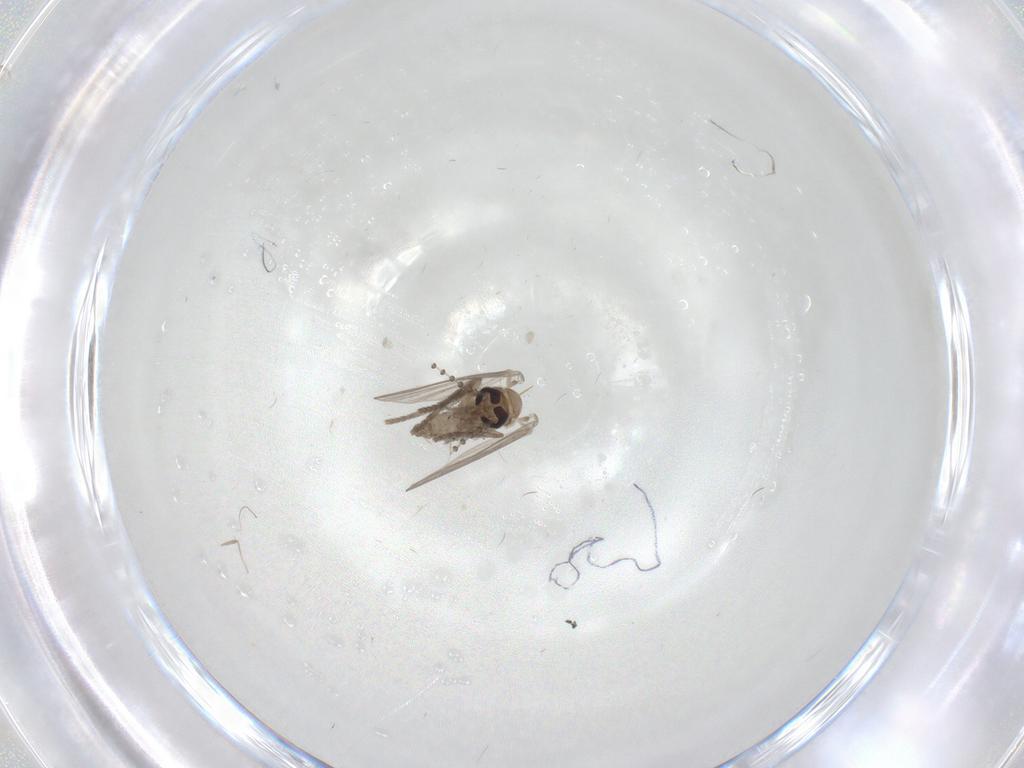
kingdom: Animalia
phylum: Arthropoda
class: Insecta
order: Diptera
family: Psychodidae
